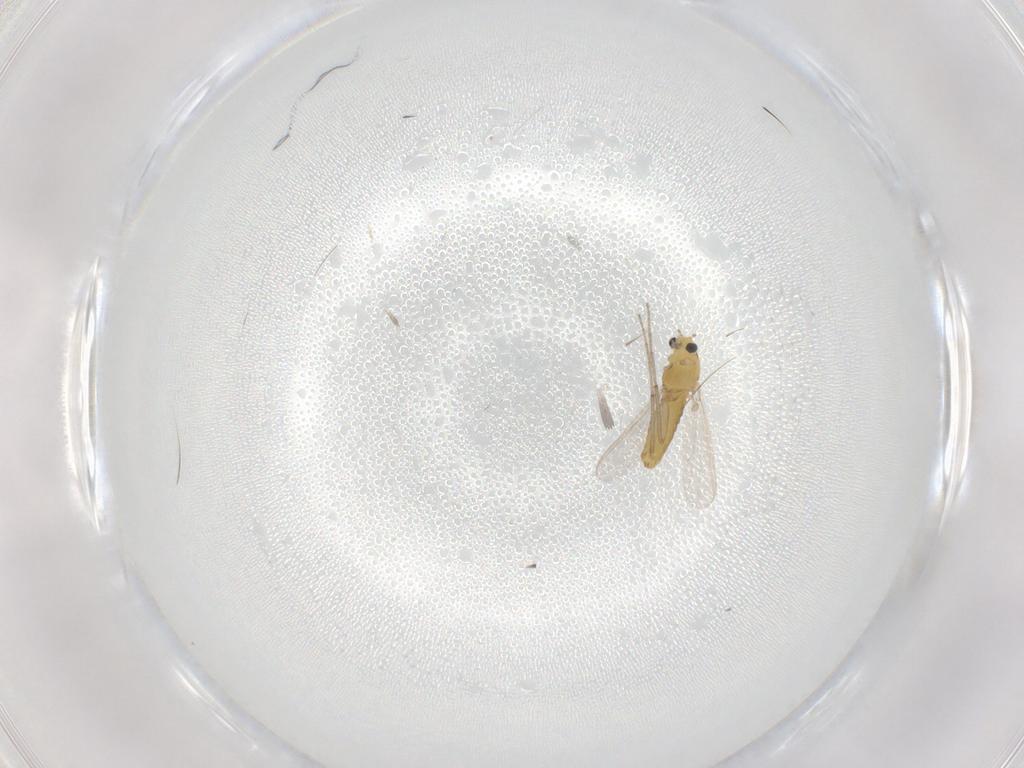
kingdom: Animalia
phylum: Arthropoda
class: Insecta
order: Diptera
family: Chironomidae
